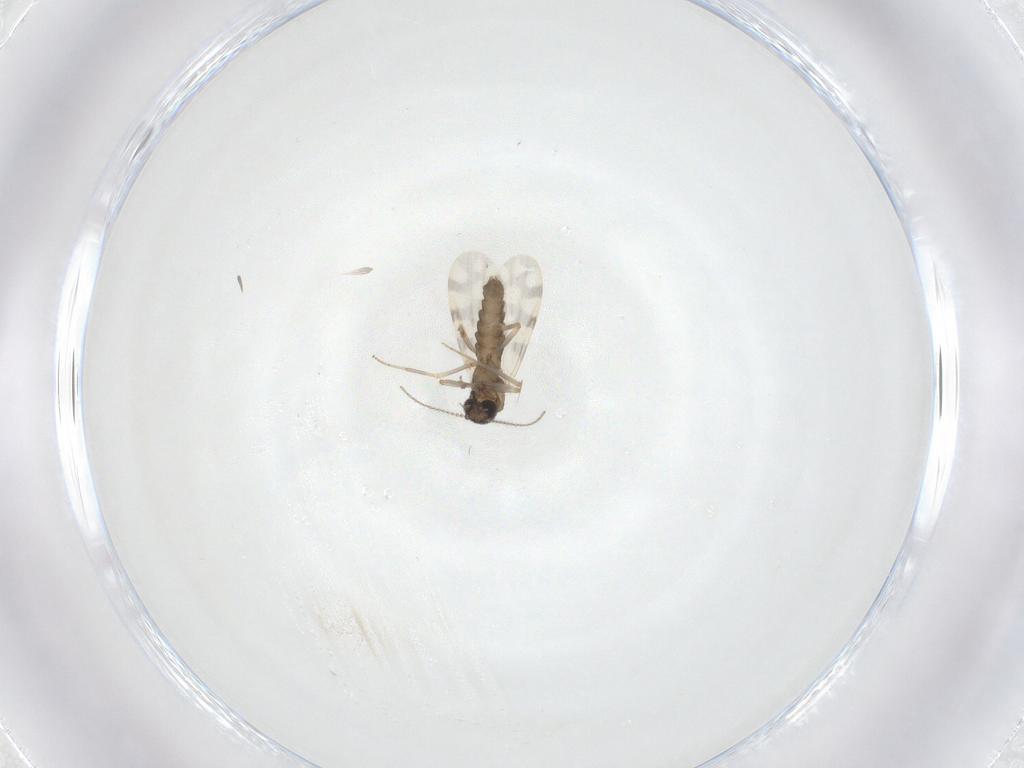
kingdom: Animalia
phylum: Arthropoda
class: Insecta
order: Diptera
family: Ceratopogonidae
